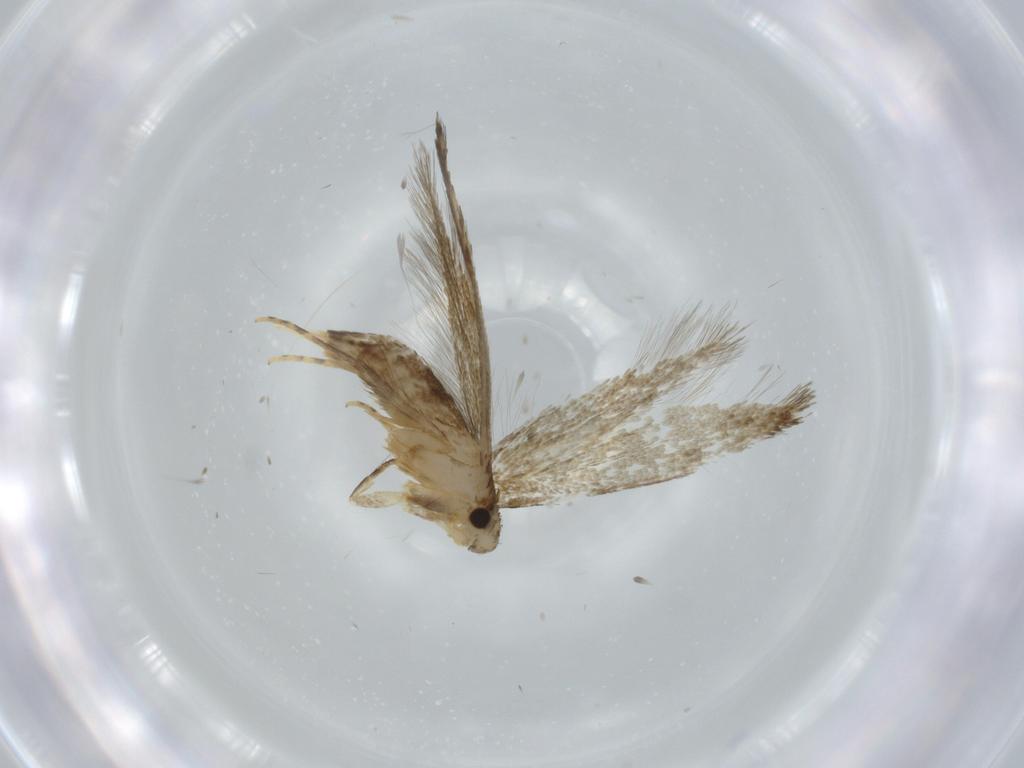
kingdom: Animalia
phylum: Arthropoda
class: Insecta
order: Lepidoptera
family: Tineidae
